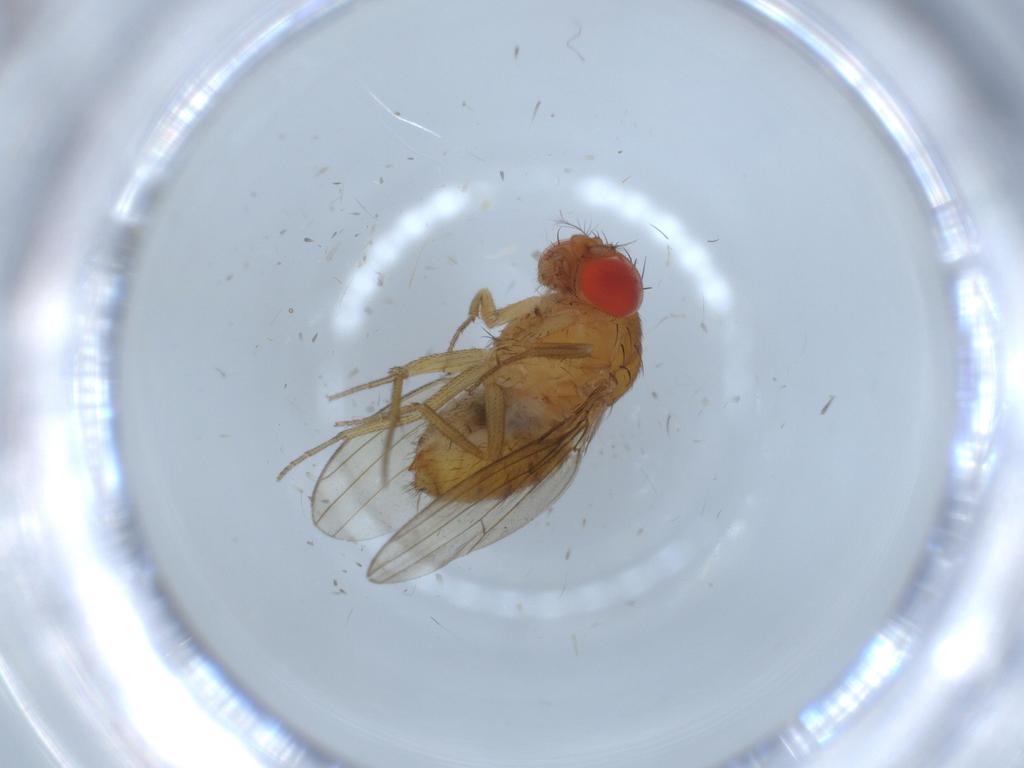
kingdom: Animalia
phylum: Arthropoda
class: Insecta
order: Diptera
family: Drosophilidae
